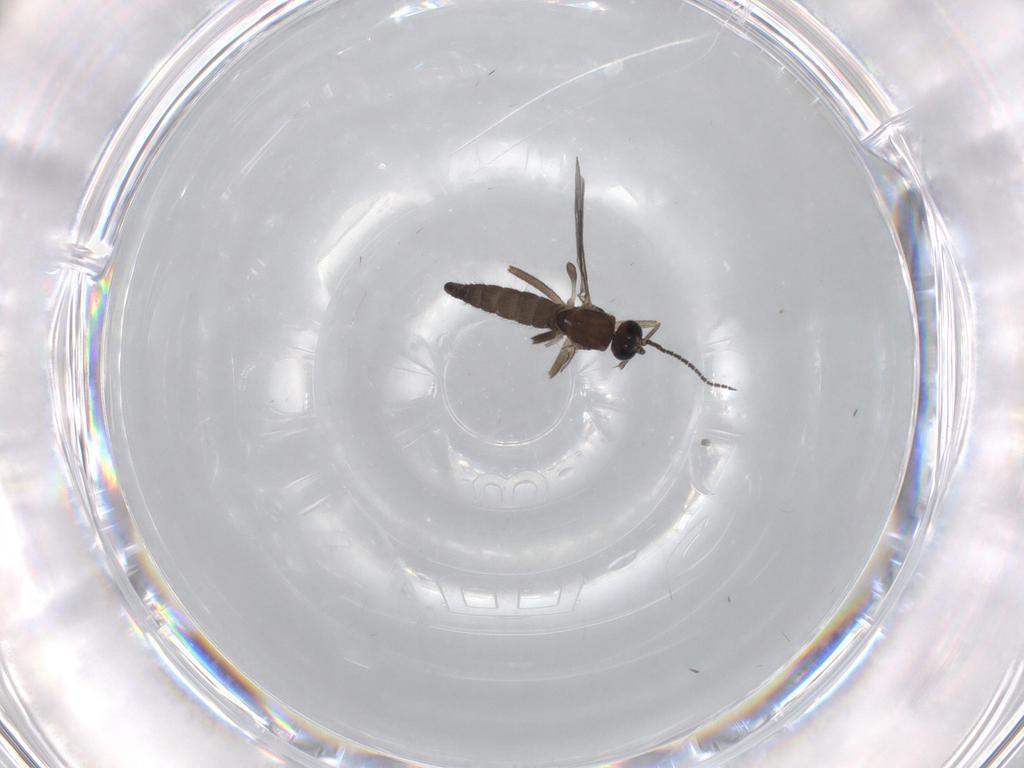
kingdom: Animalia
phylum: Arthropoda
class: Insecta
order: Diptera
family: Sciaridae
